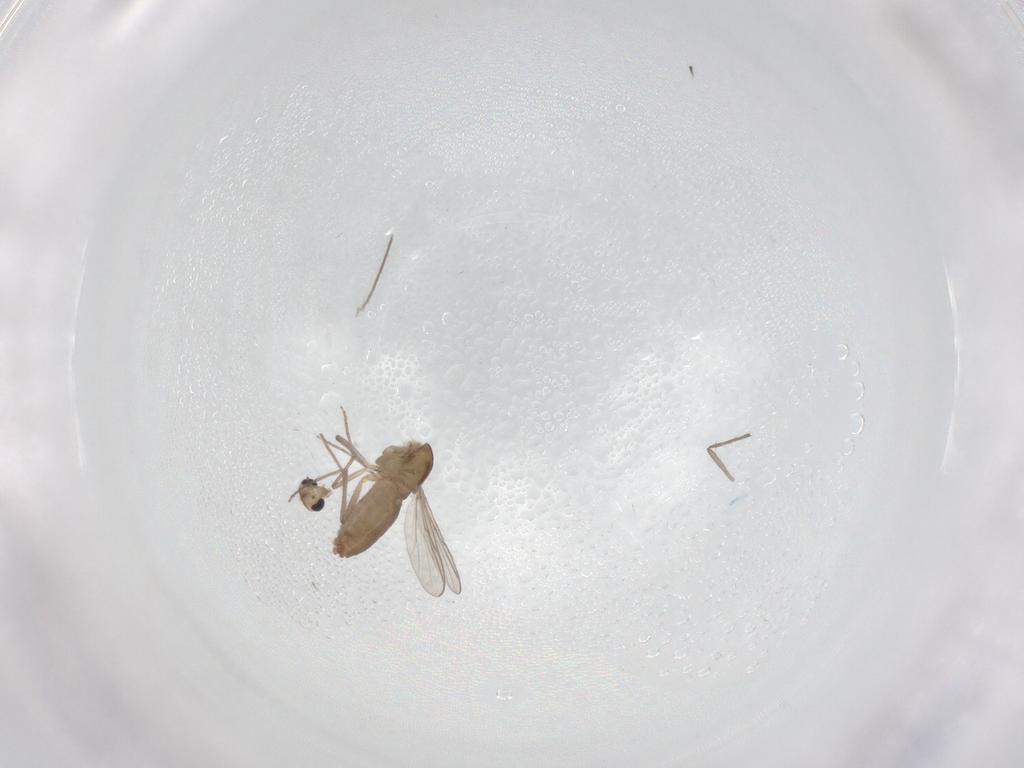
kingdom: Animalia
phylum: Arthropoda
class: Insecta
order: Diptera
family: Chironomidae
